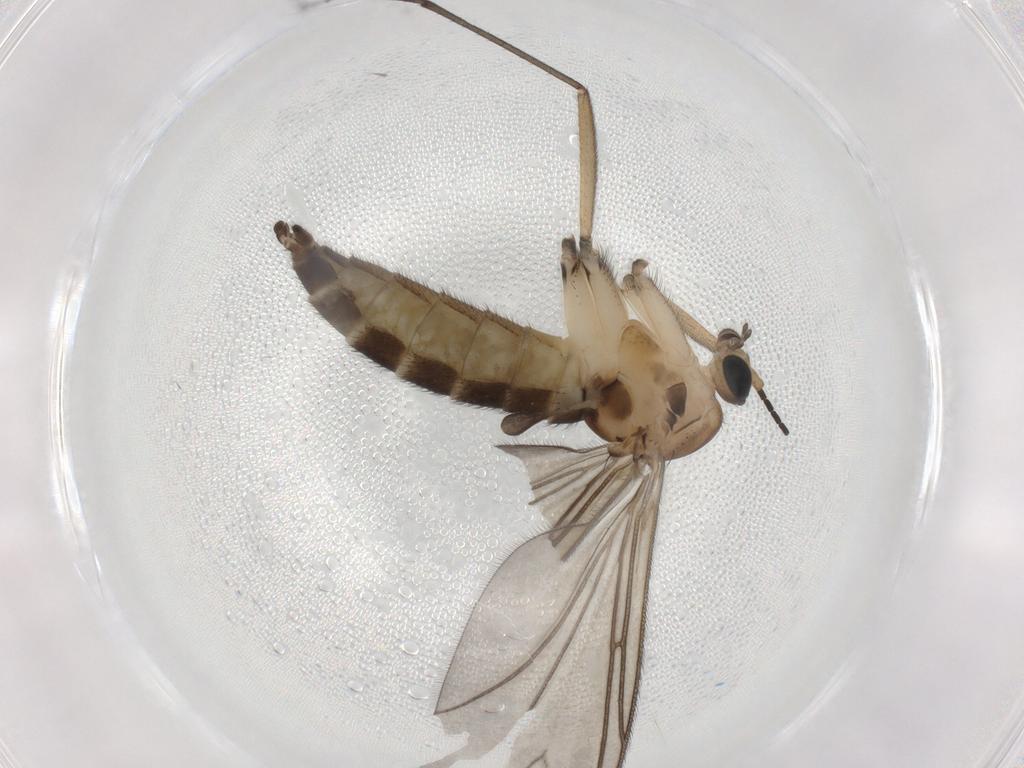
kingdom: Animalia
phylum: Arthropoda
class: Insecta
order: Diptera
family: Sciaridae
